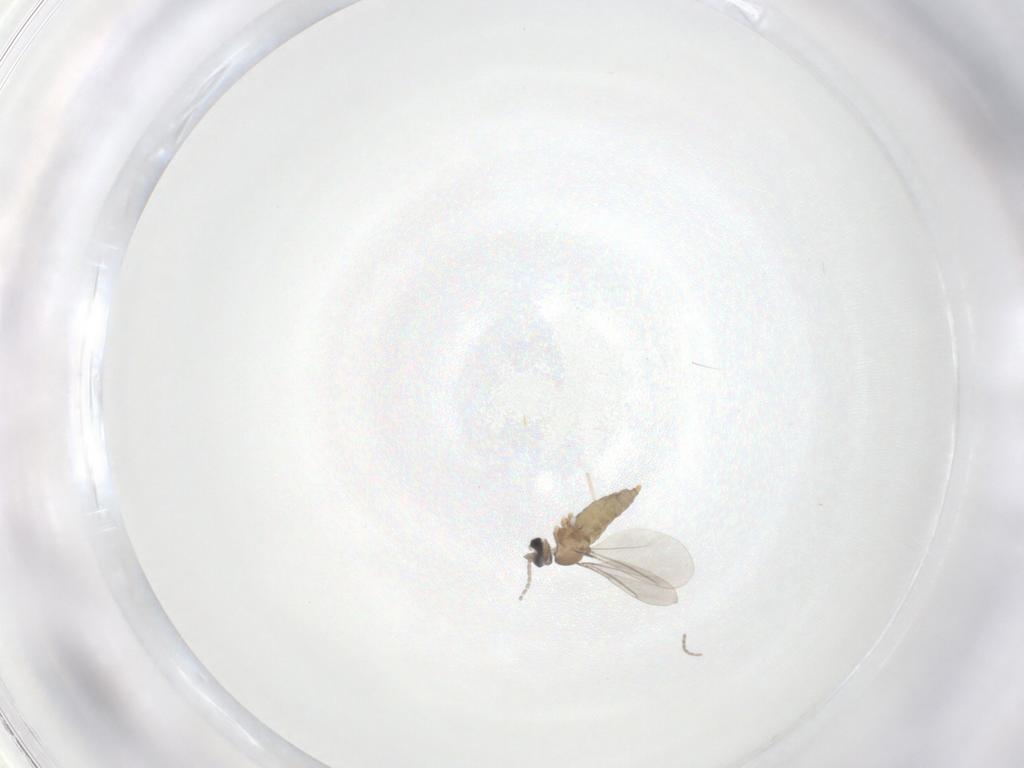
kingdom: Animalia
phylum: Arthropoda
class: Insecta
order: Diptera
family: Cecidomyiidae
